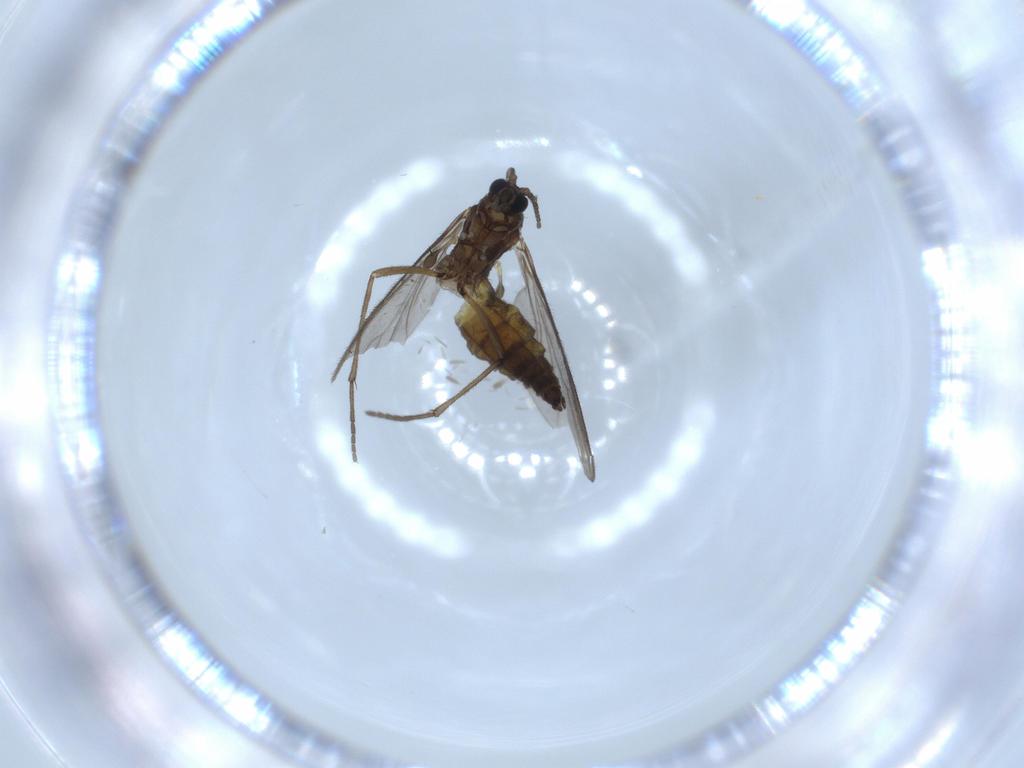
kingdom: Animalia
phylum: Arthropoda
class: Insecta
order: Diptera
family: Sciaridae
